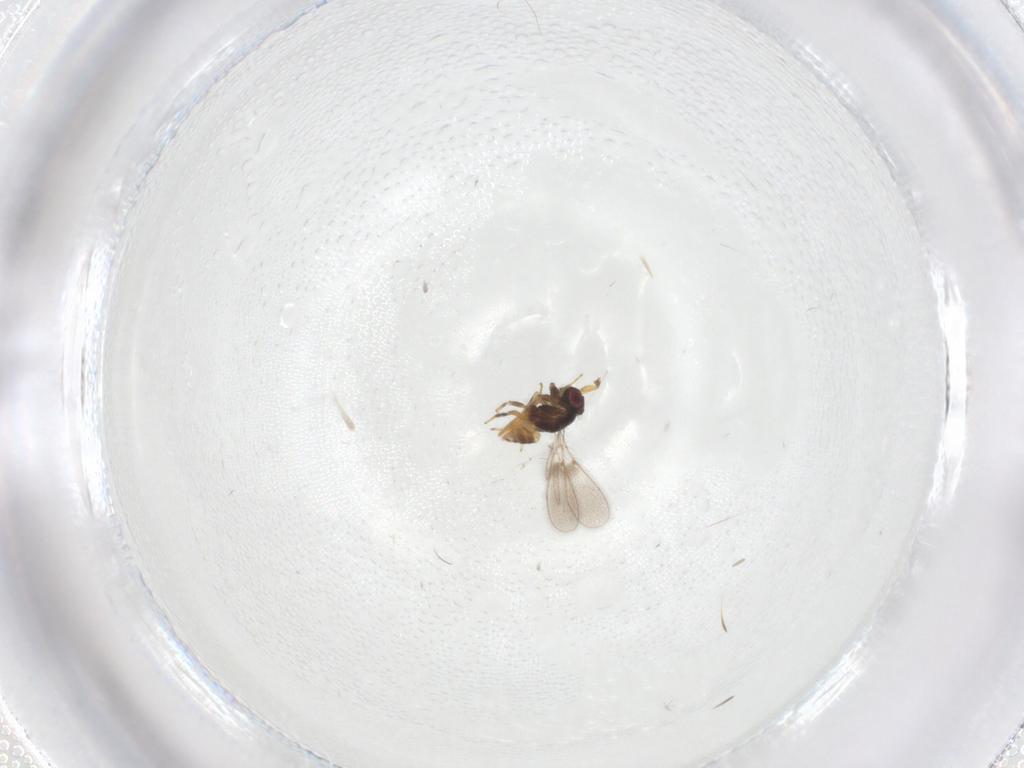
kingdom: Animalia
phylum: Arthropoda
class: Insecta
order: Hymenoptera
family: Mymaridae
